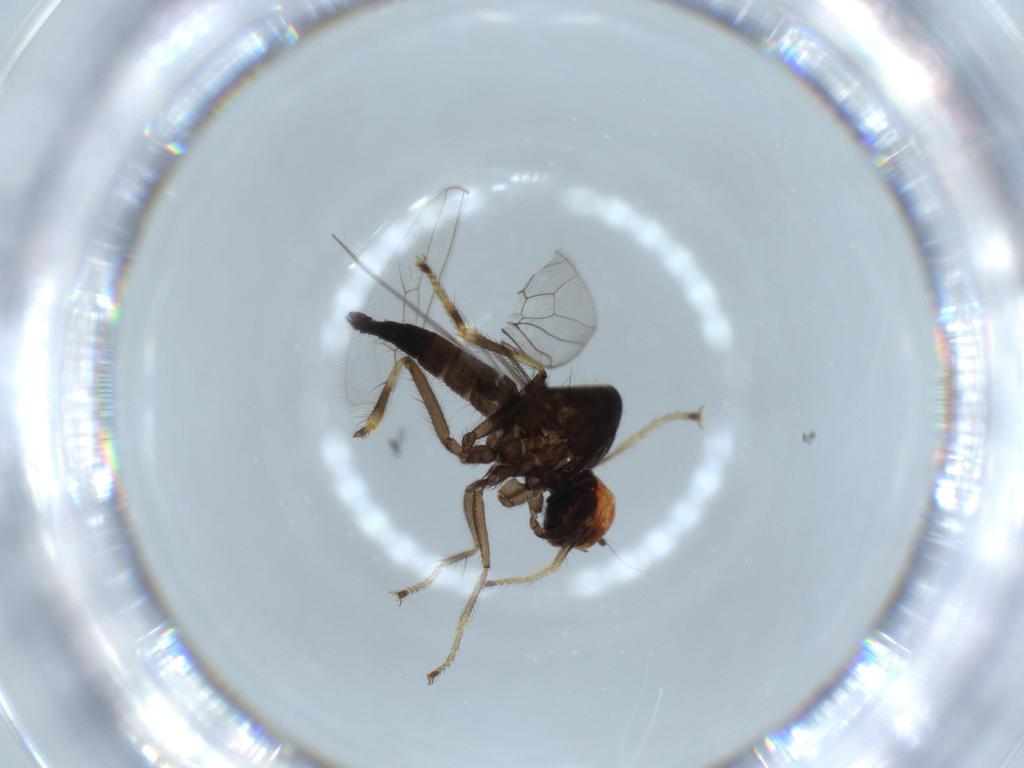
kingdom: Animalia
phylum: Arthropoda
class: Insecta
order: Diptera
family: Hybotidae
